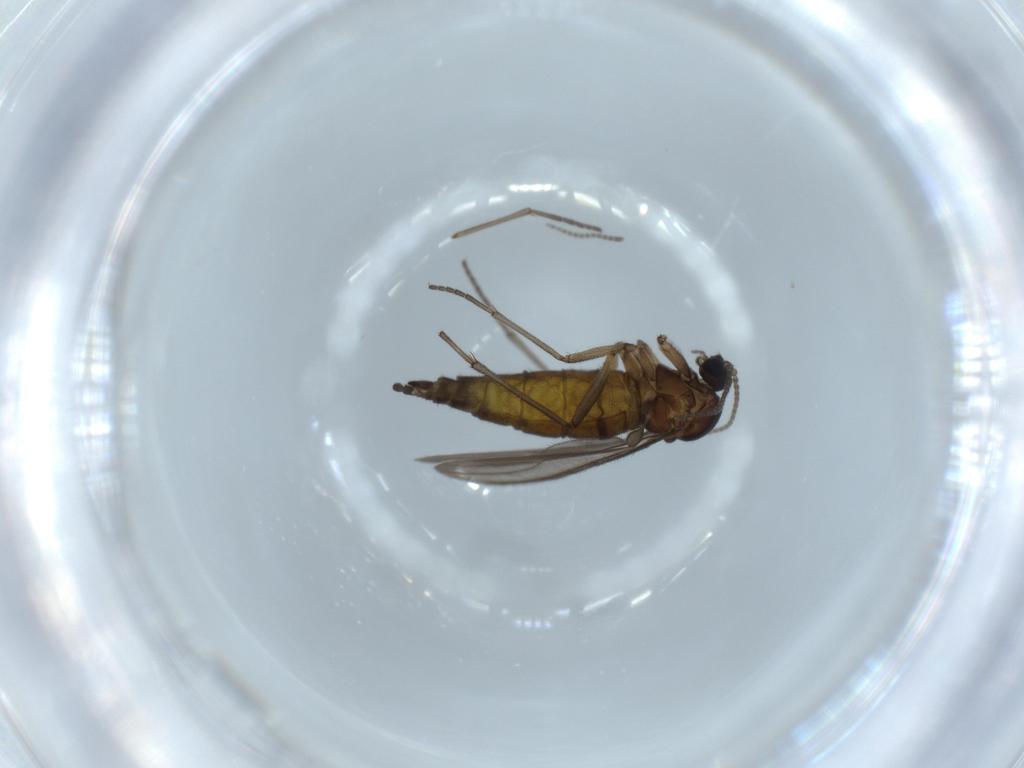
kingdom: Animalia
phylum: Arthropoda
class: Insecta
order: Diptera
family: Sciaridae
